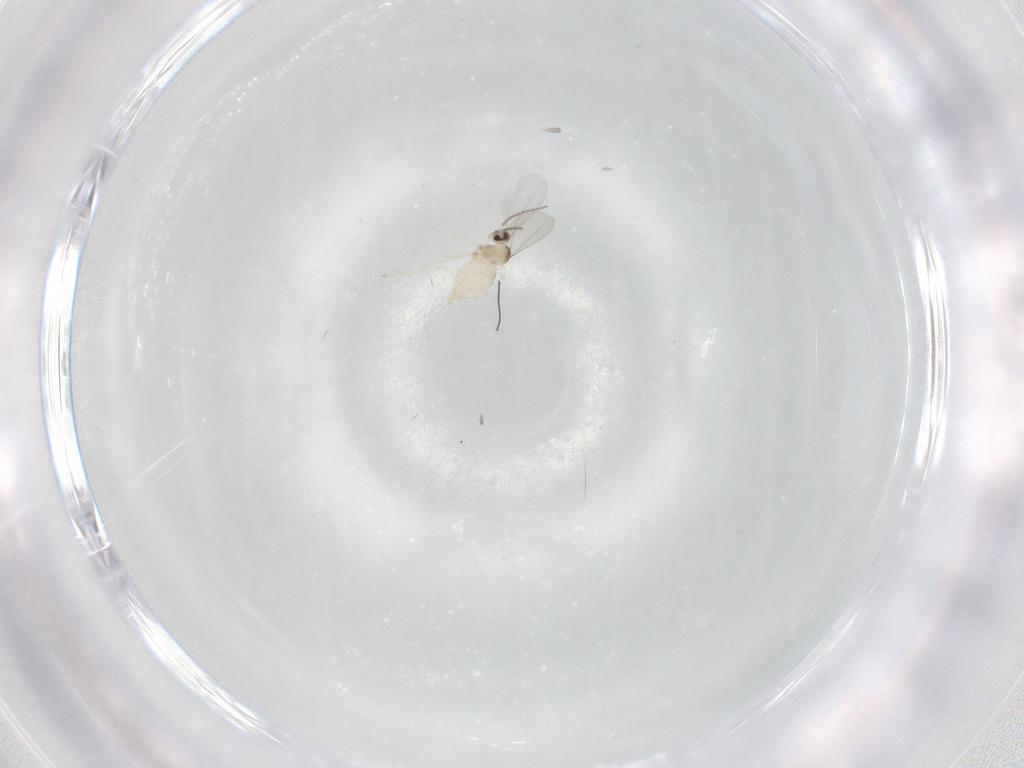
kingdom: Animalia
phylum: Arthropoda
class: Insecta
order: Diptera
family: Cecidomyiidae
